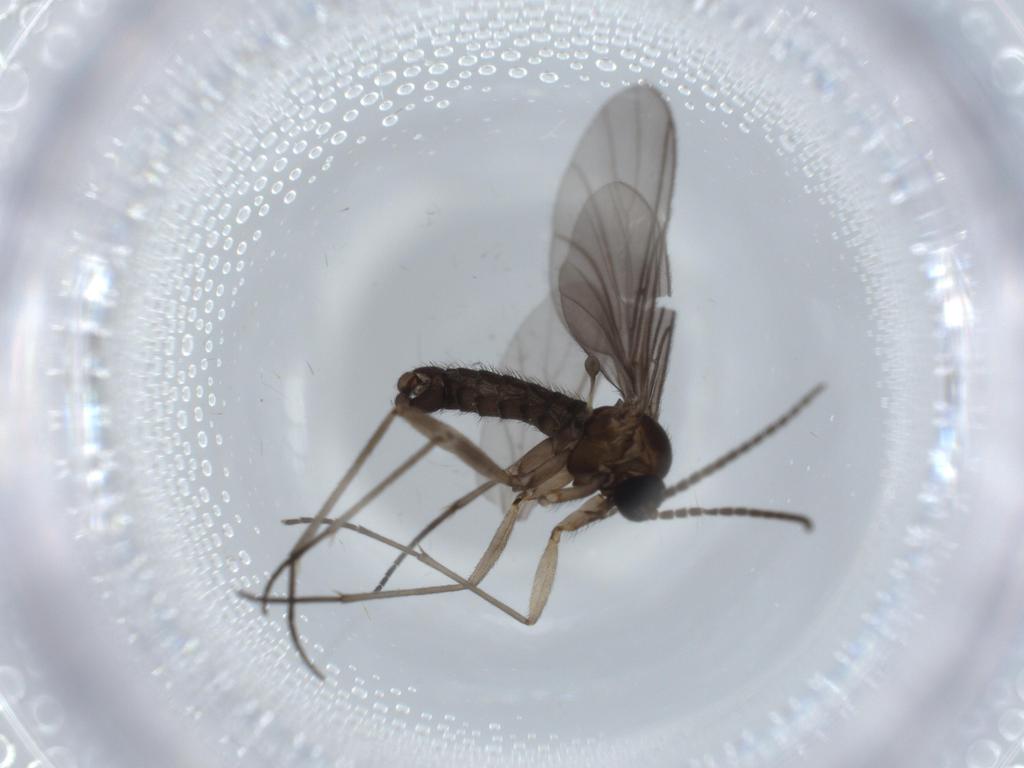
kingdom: Animalia
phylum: Arthropoda
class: Insecta
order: Diptera
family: Sciaridae
